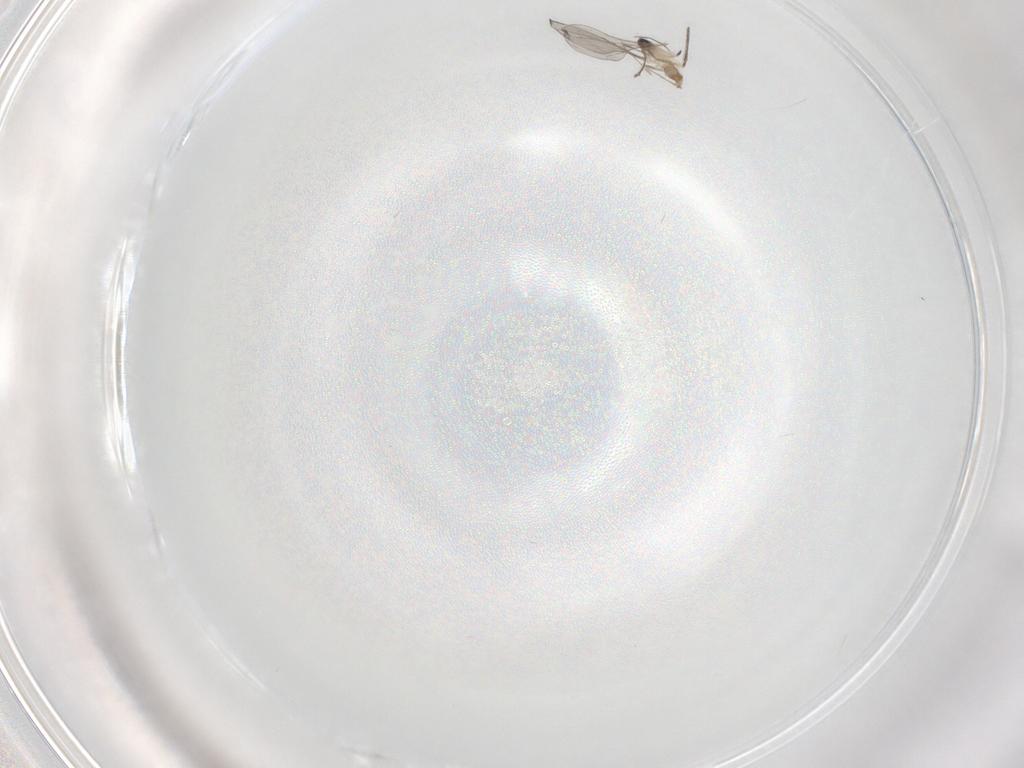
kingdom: Animalia
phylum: Arthropoda
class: Insecta
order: Diptera
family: Cecidomyiidae
